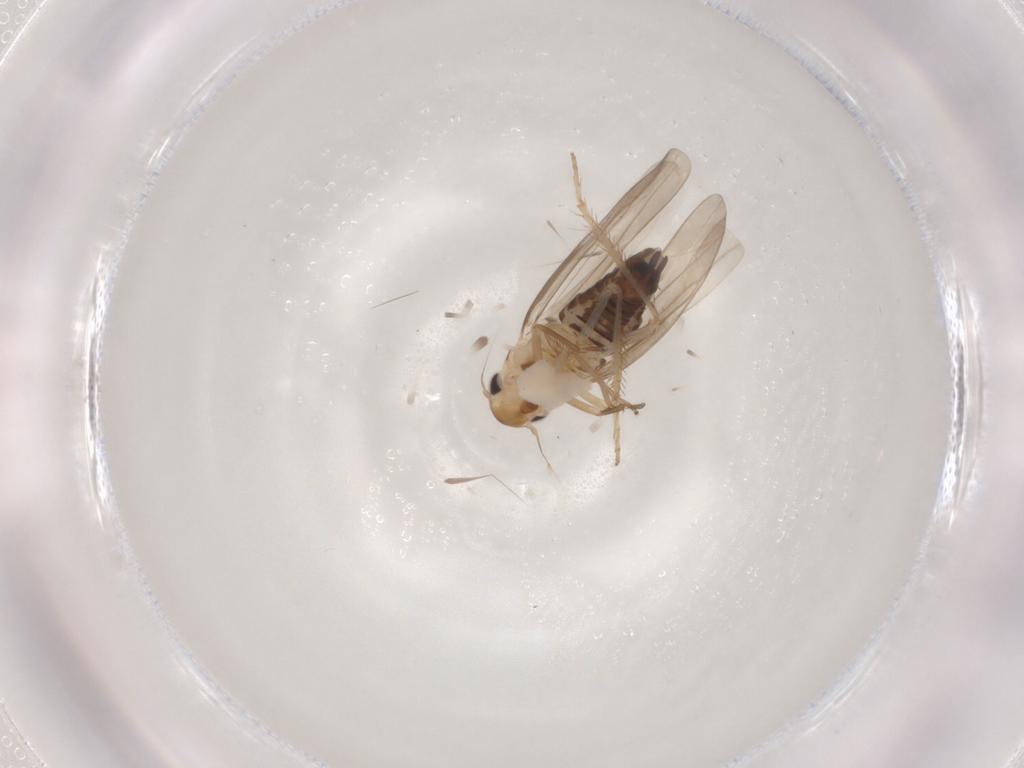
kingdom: Animalia
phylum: Arthropoda
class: Insecta
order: Hemiptera
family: Cicadellidae
